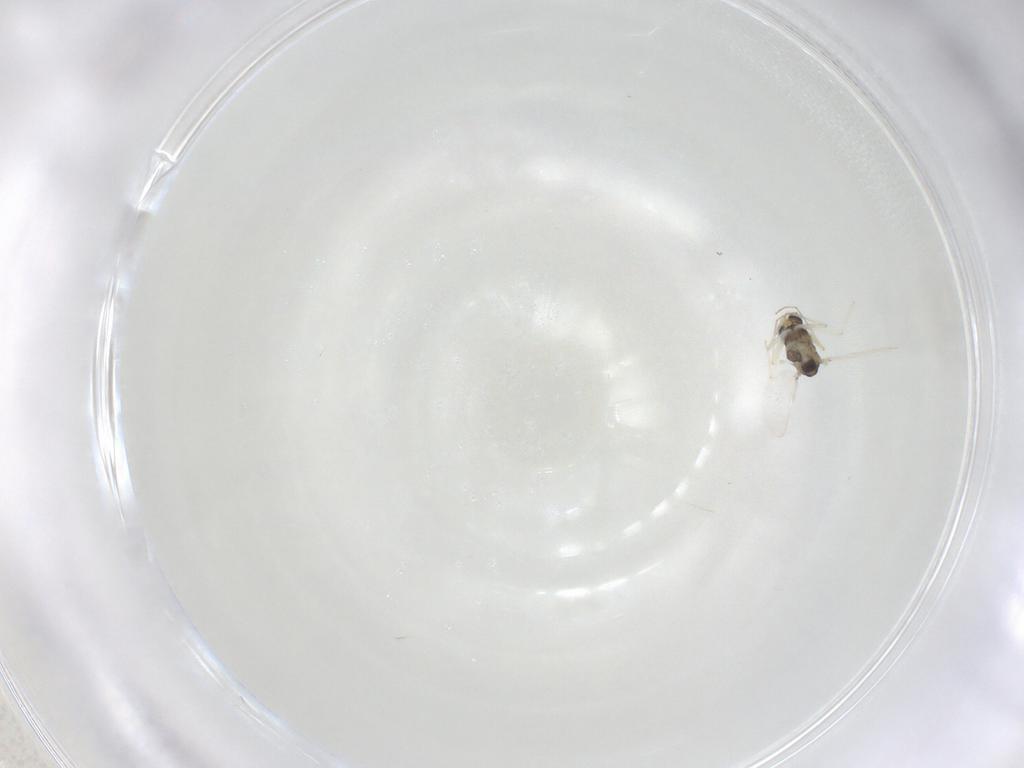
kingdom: Animalia
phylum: Arthropoda
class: Insecta
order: Diptera
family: Chironomidae
